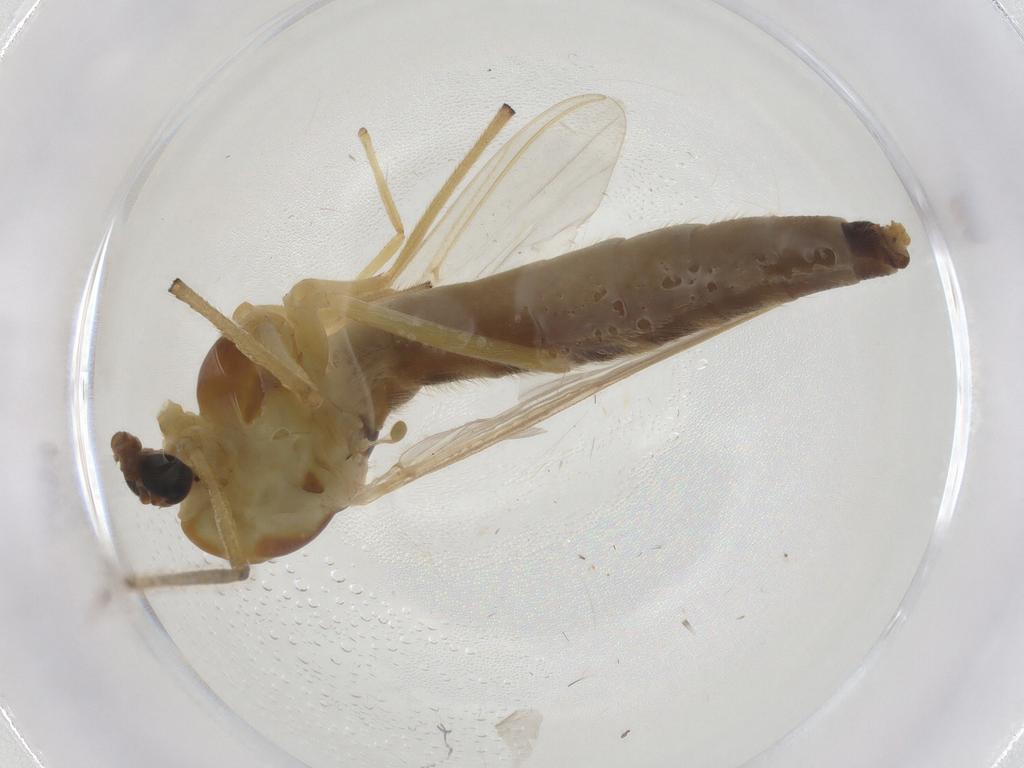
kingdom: Animalia
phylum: Arthropoda
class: Insecta
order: Diptera
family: Chironomidae
